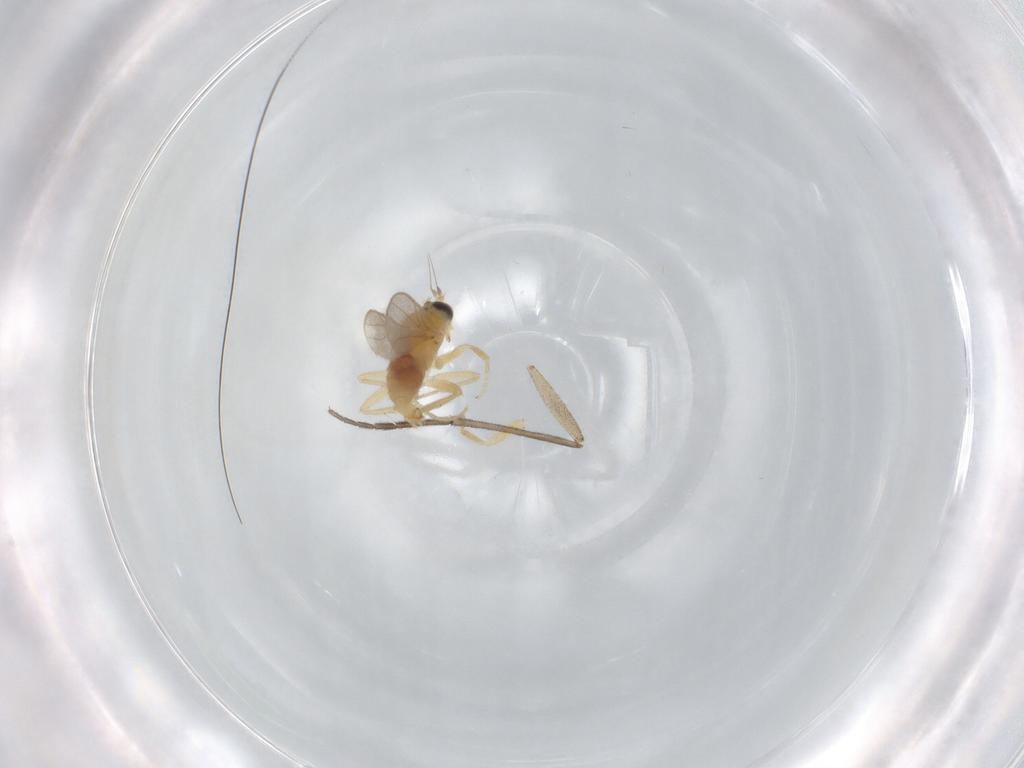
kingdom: Animalia
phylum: Arthropoda
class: Insecta
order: Diptera
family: Hybotidae
